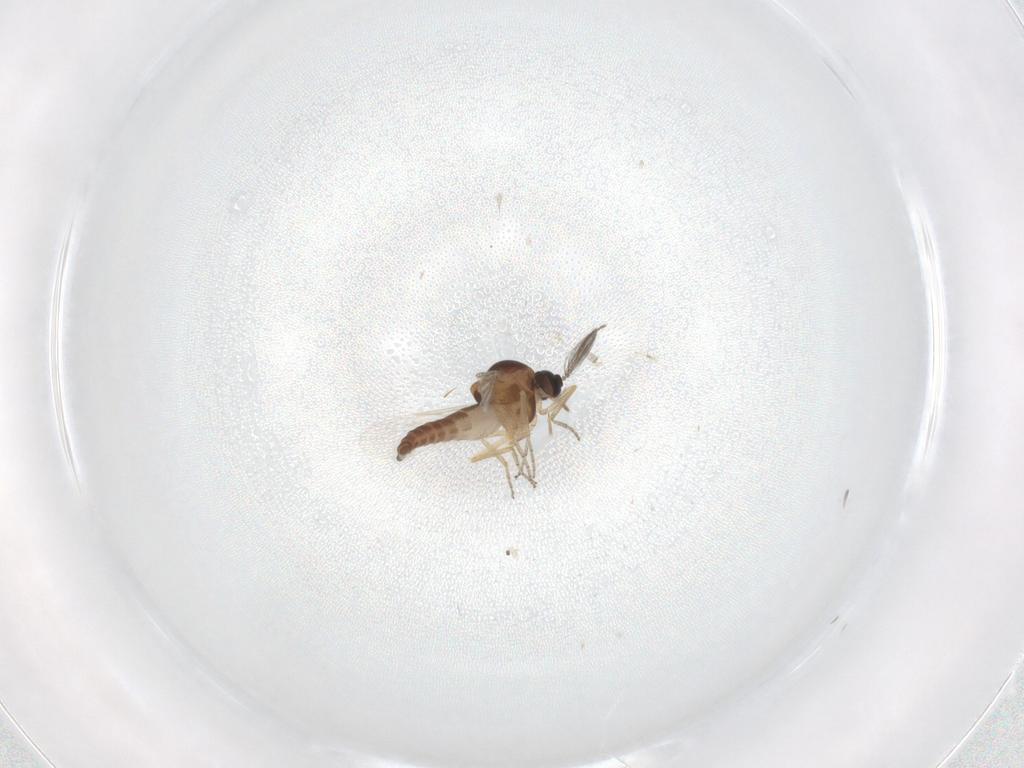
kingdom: Animalia
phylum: Arthropoda
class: Insecta
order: Diptera
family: Ceratopogonidae
